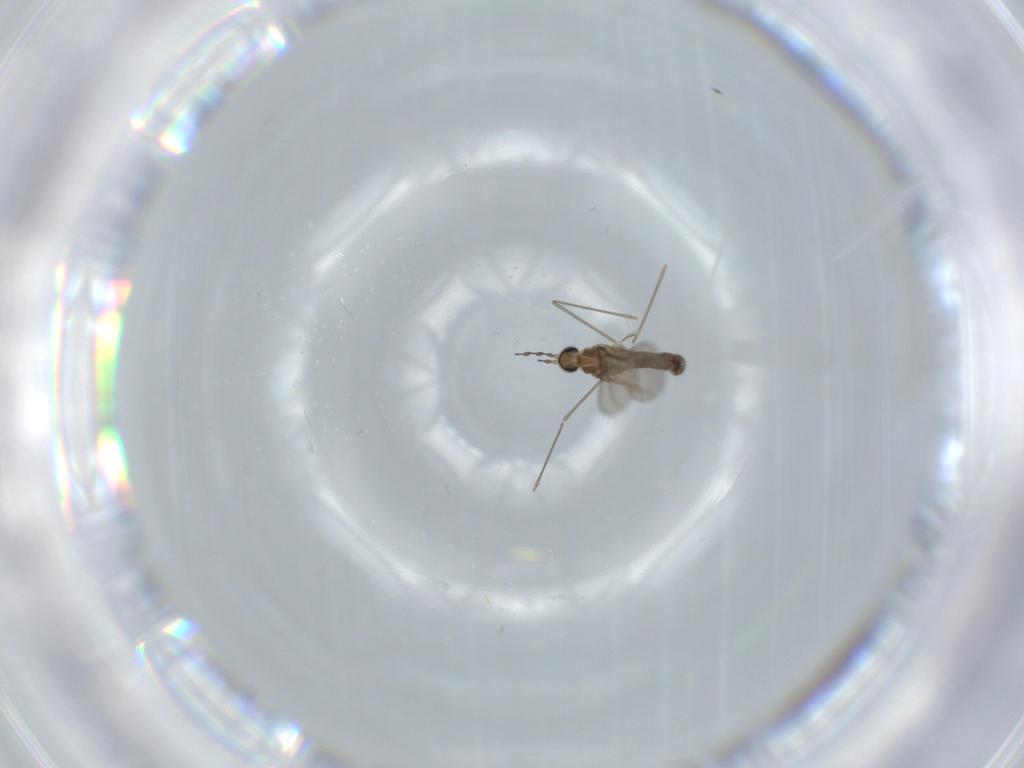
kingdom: Animalia
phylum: Arthropoda
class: Insecta
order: Diptera
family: Cecidomyiidae
